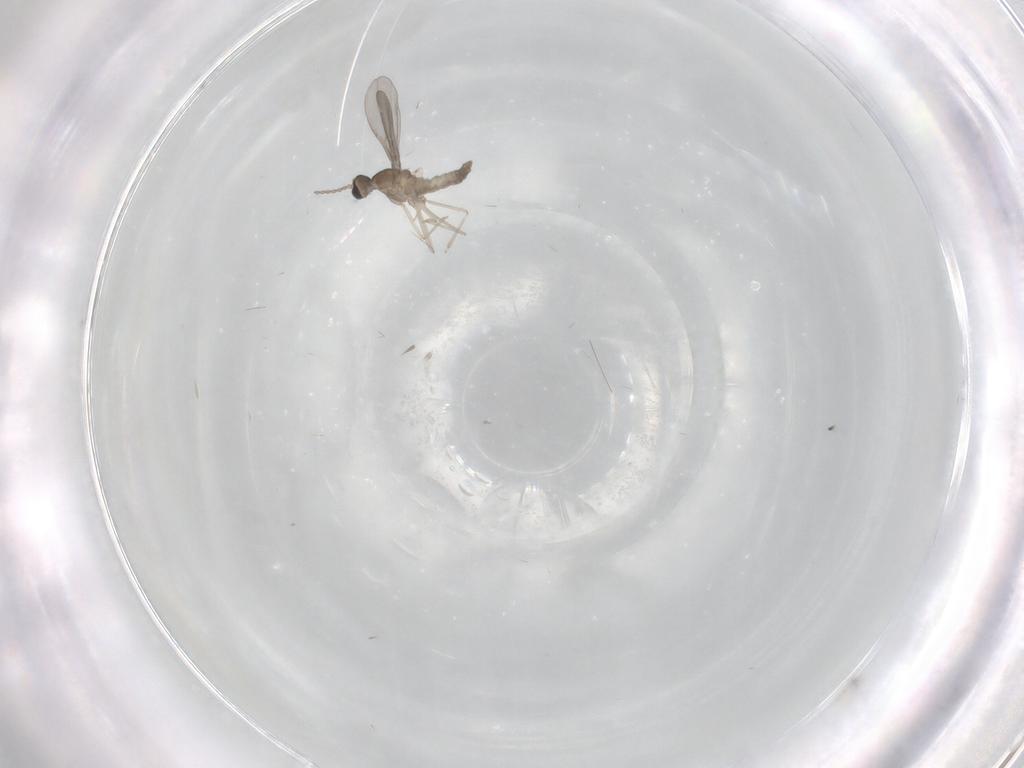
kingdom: Animalia
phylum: Arthropoda
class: Insecta
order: Diptera
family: Ceratopogonidae
